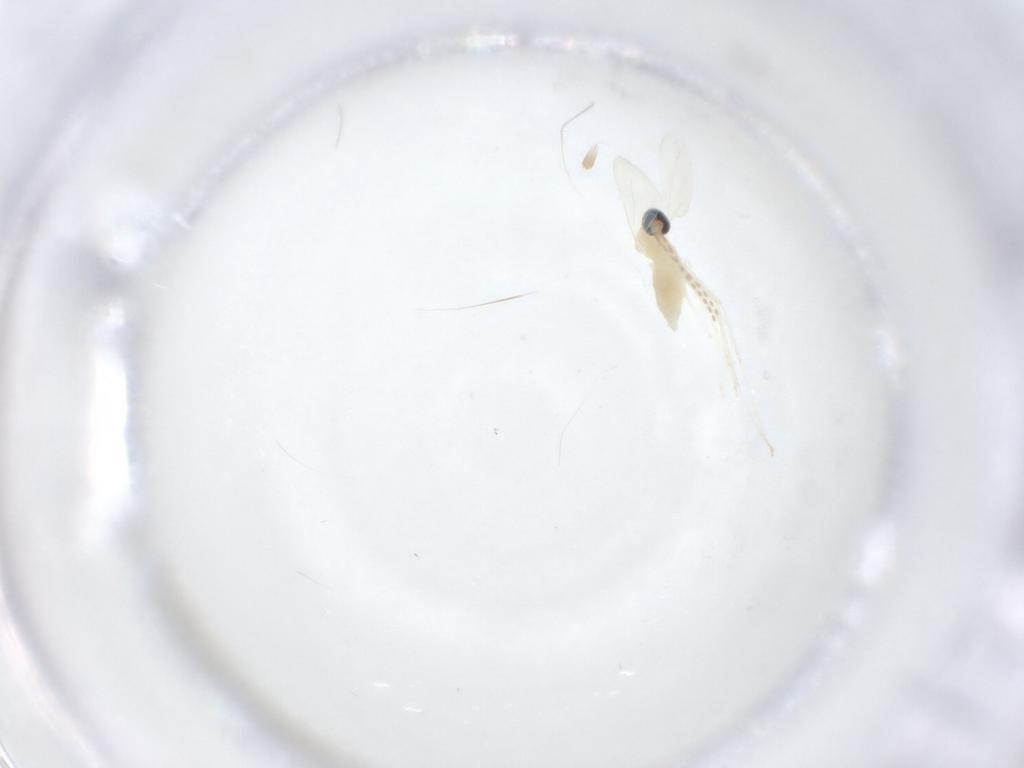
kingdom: Animalia
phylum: Arthropoda
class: Insecta
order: Diptera
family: Cecidomyiidae
